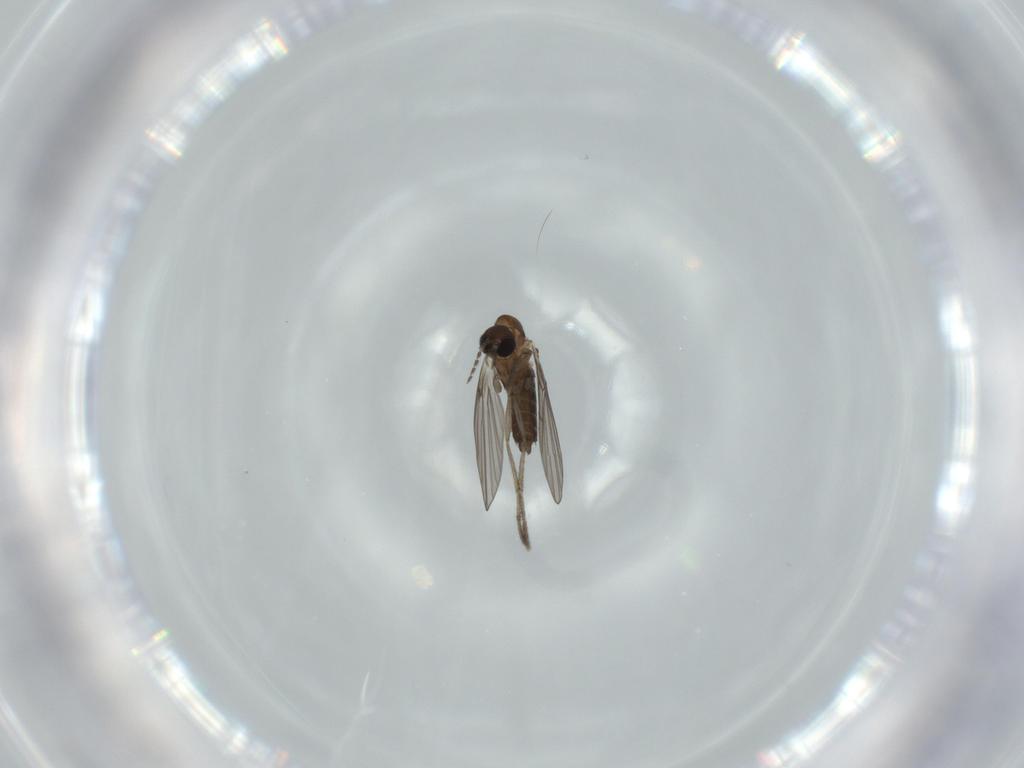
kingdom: Animalia
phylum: Arthropoda
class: Insecta
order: Diptera
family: Psychodidae
